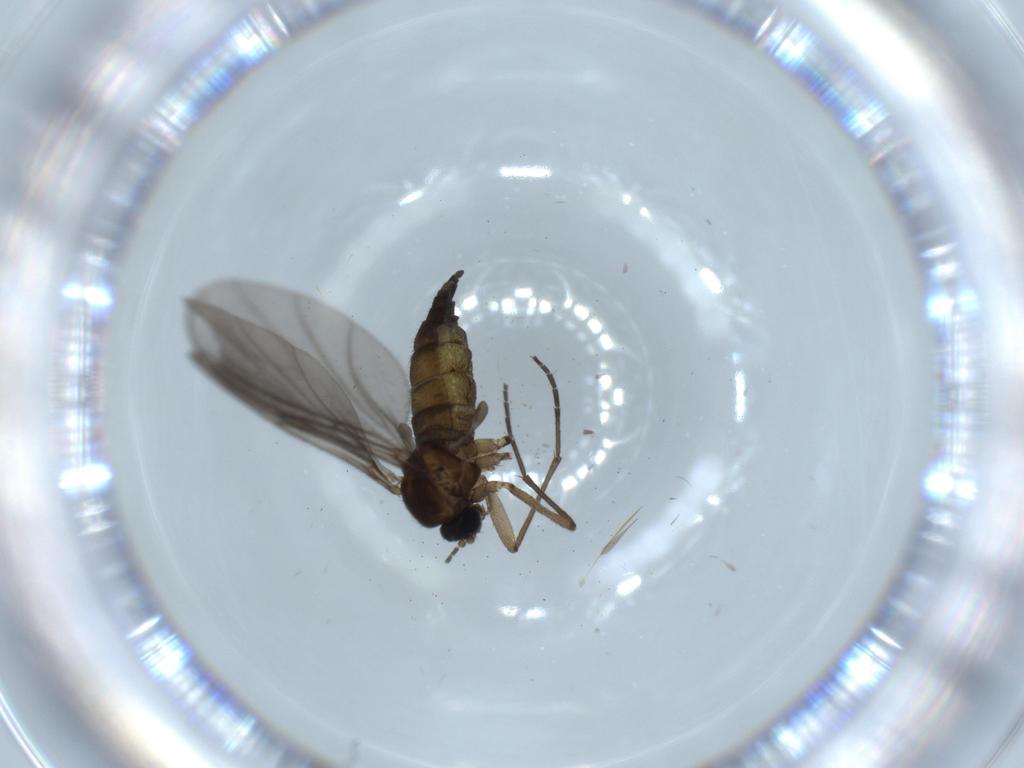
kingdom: Animalia
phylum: Arthropoda
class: Insecta
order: Diptera
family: Sciaridae
